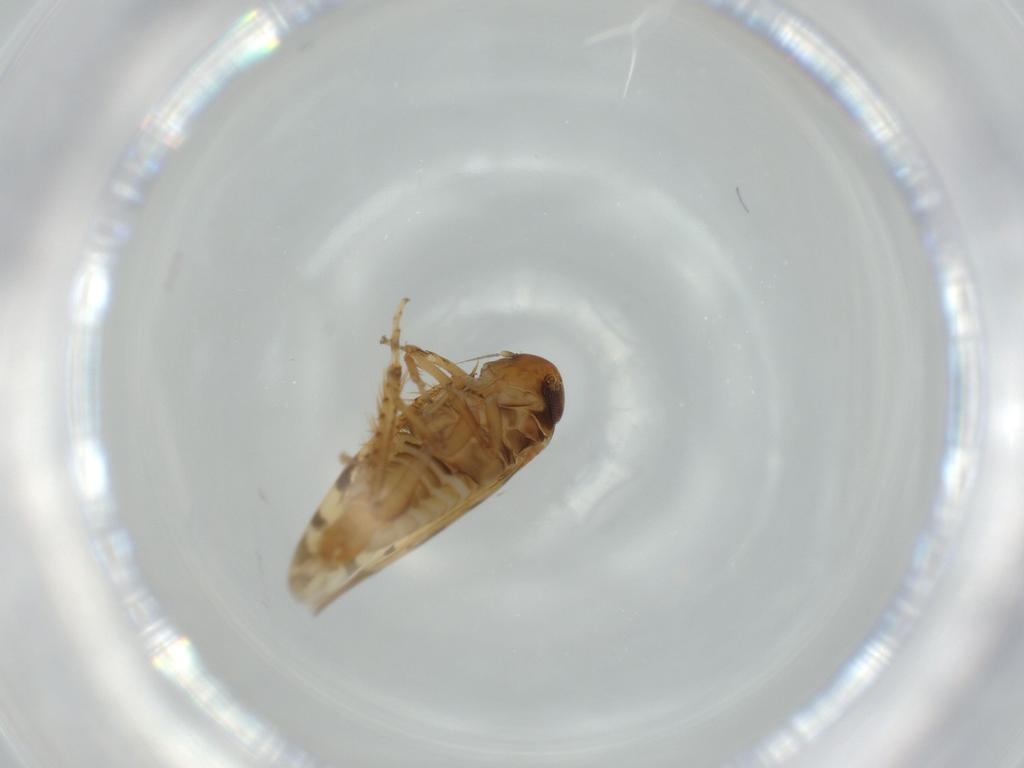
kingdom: Animalia
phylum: Arthropoda
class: Insecta
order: Hemiptera
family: Cicadellidae
